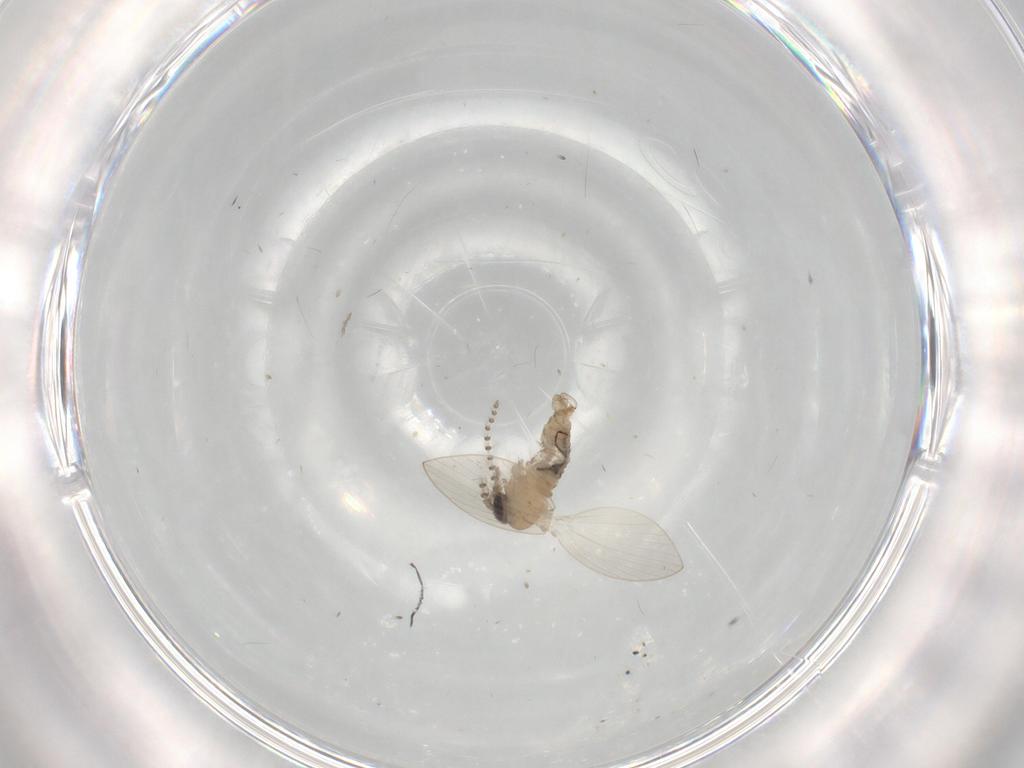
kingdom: Animalia
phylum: Arthropoda
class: Insecta
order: Diptera
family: Psychodidae
